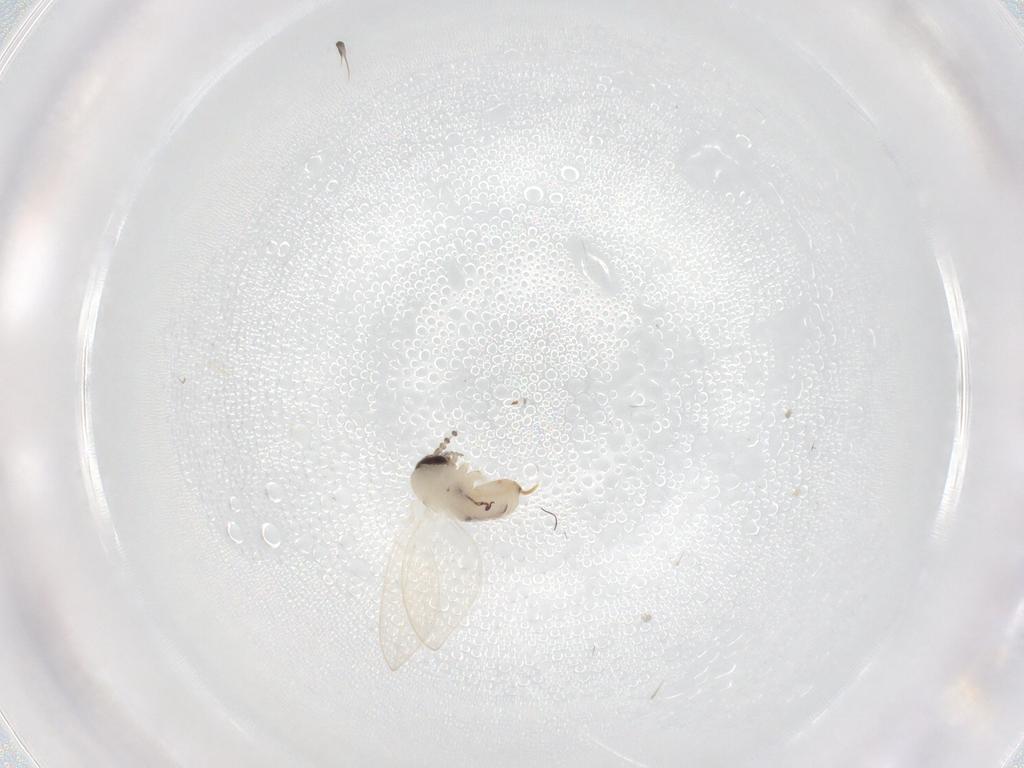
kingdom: Animalia
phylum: Arthropoda
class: Insecta
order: Diptera
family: Psychodidae
